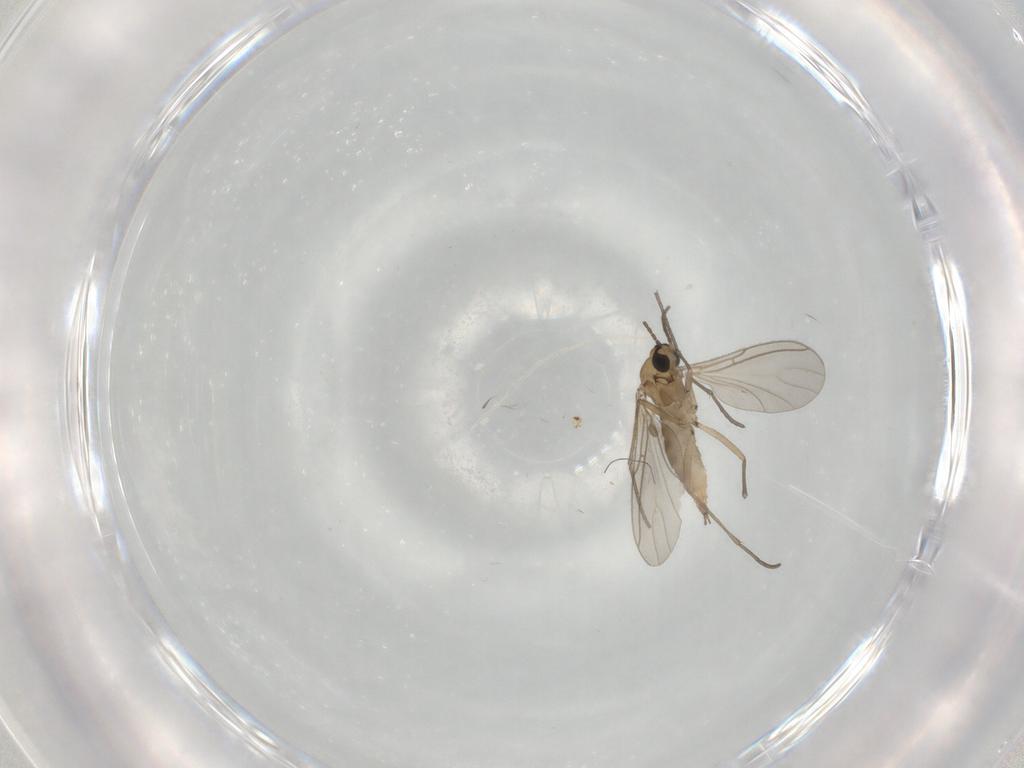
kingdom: Animalia
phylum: Arthropoda
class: Insecta
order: Diptera
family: Sciaridae
